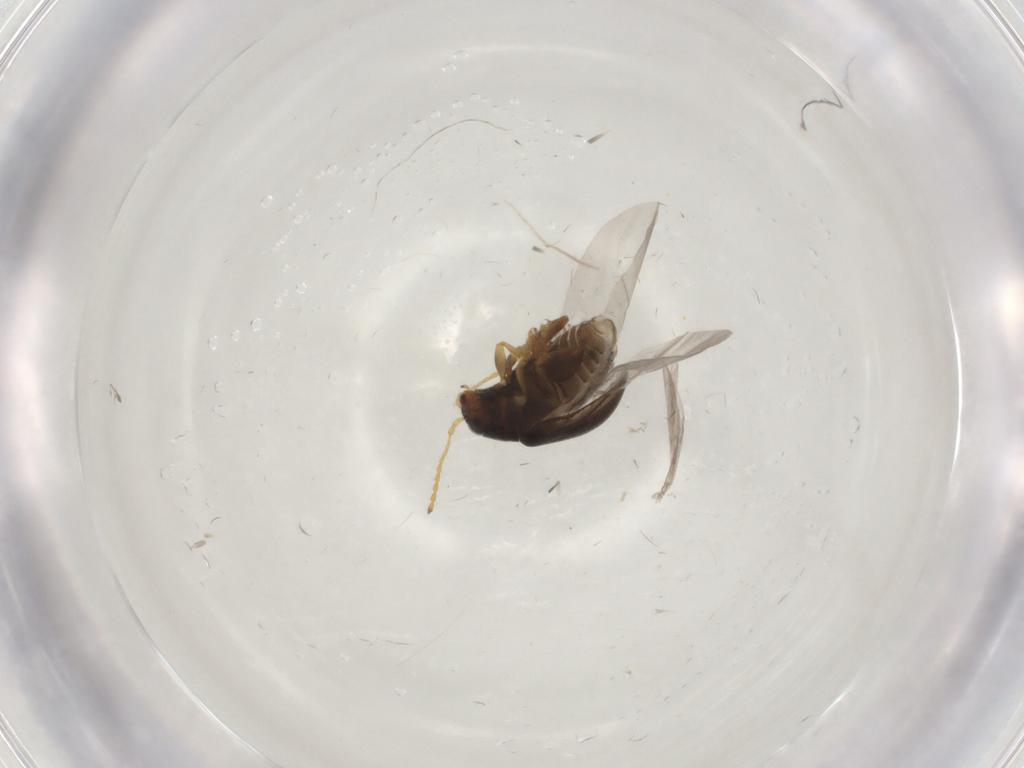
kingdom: Animalia
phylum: Arthropoda
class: Insecta
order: Coleoptera
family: Chrysomelidae
